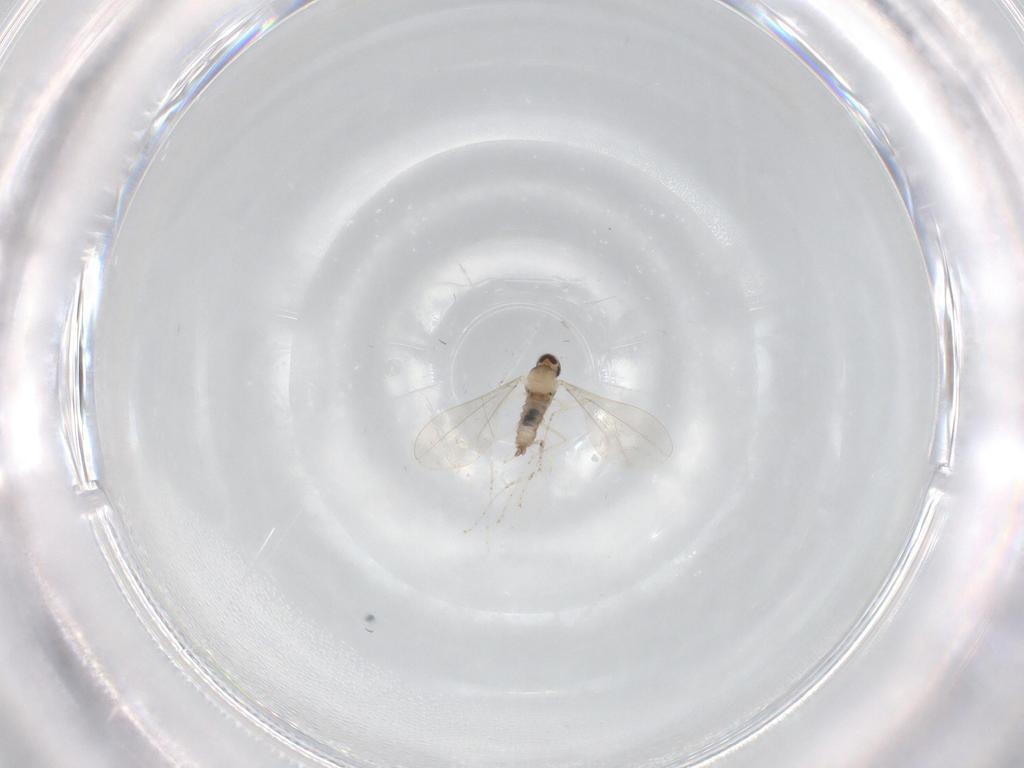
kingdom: Animalia
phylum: Arthropoda
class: Insecta
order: Diptera
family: Cecidomyiidae
